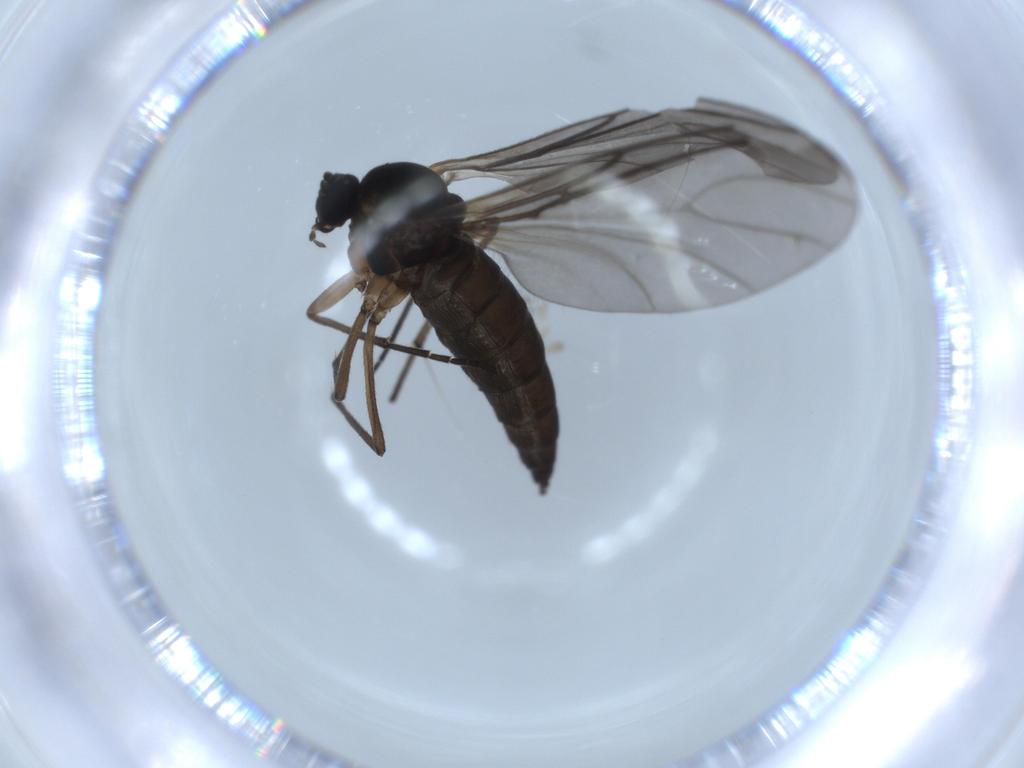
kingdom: Animalia
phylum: Arthropoda
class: Insecta
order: Diptera
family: Sciaridae
